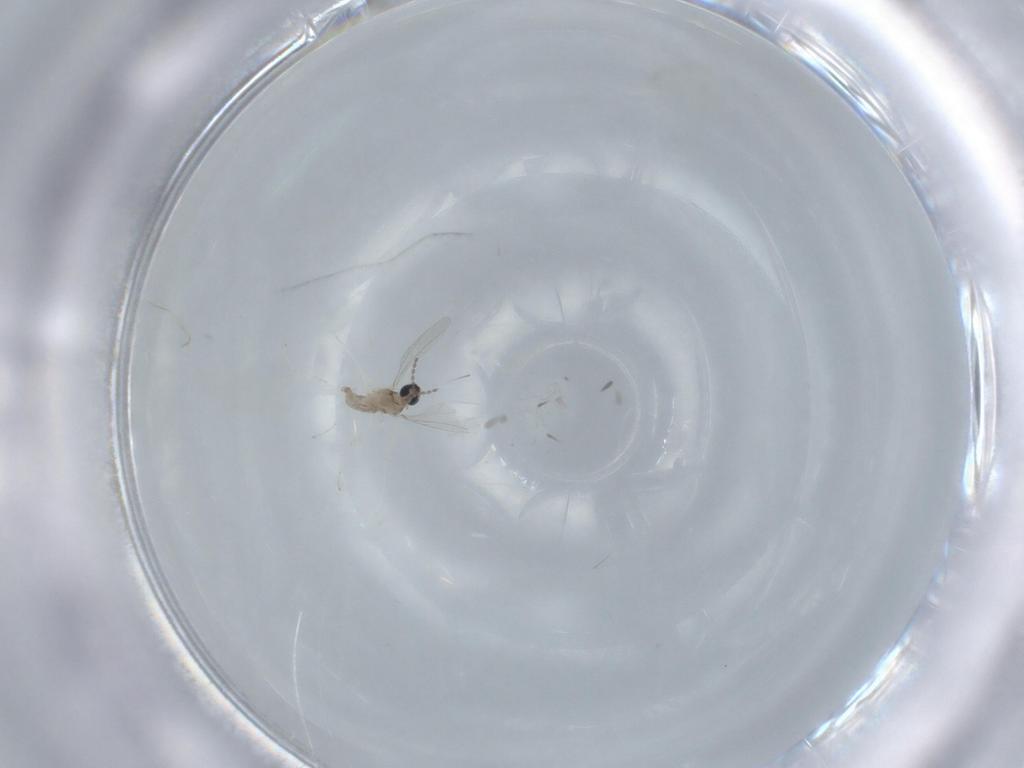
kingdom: Animalia
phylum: Arthropoda
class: Insecta
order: Diptera
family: Cecidomyiidae
